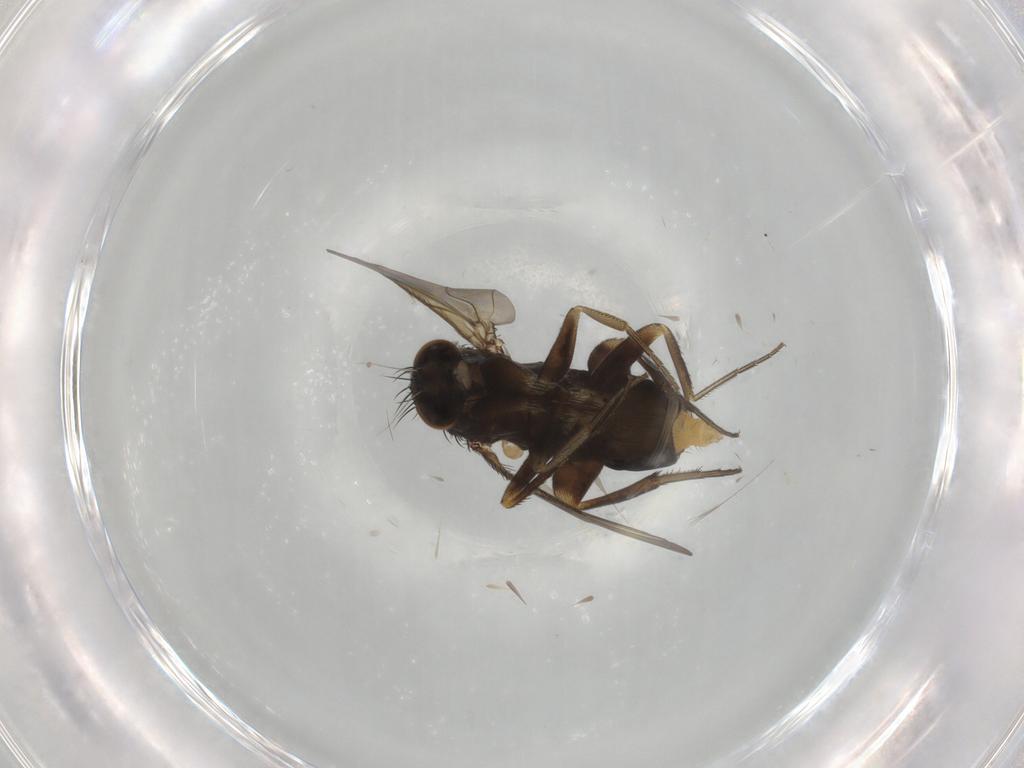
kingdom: Animalia
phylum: Arthropoda
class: Insecta
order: Diptera
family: Phoridae
